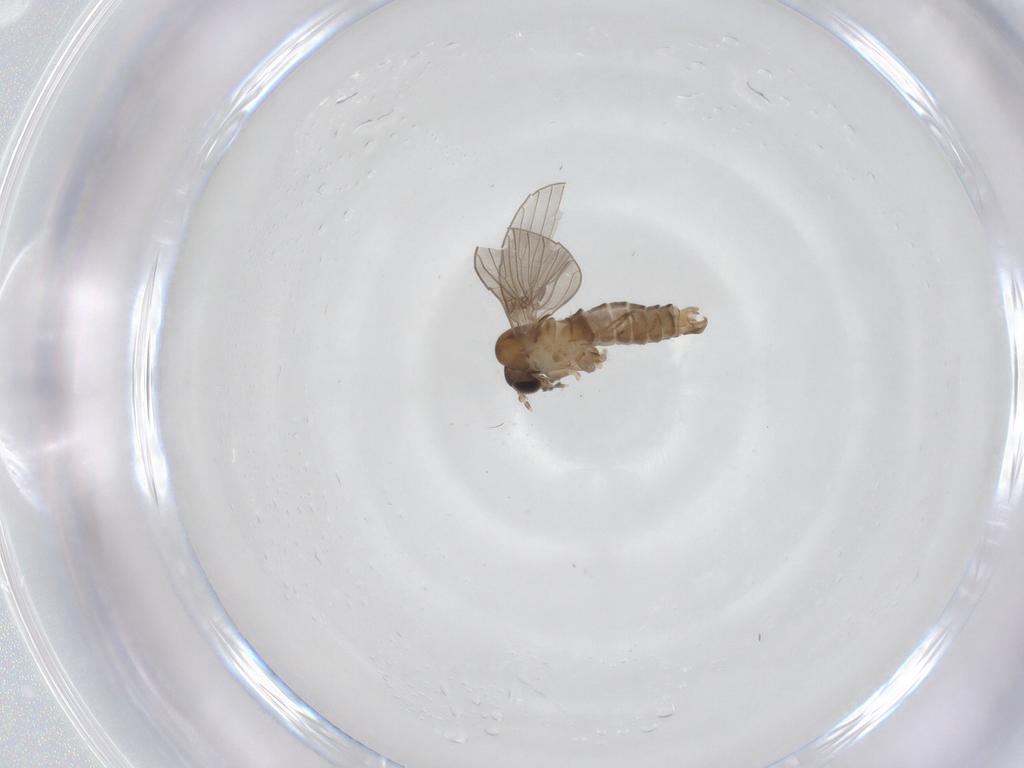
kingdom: Animalia
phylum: Arthropoda
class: Insecta
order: Diptera
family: Psychodidae
